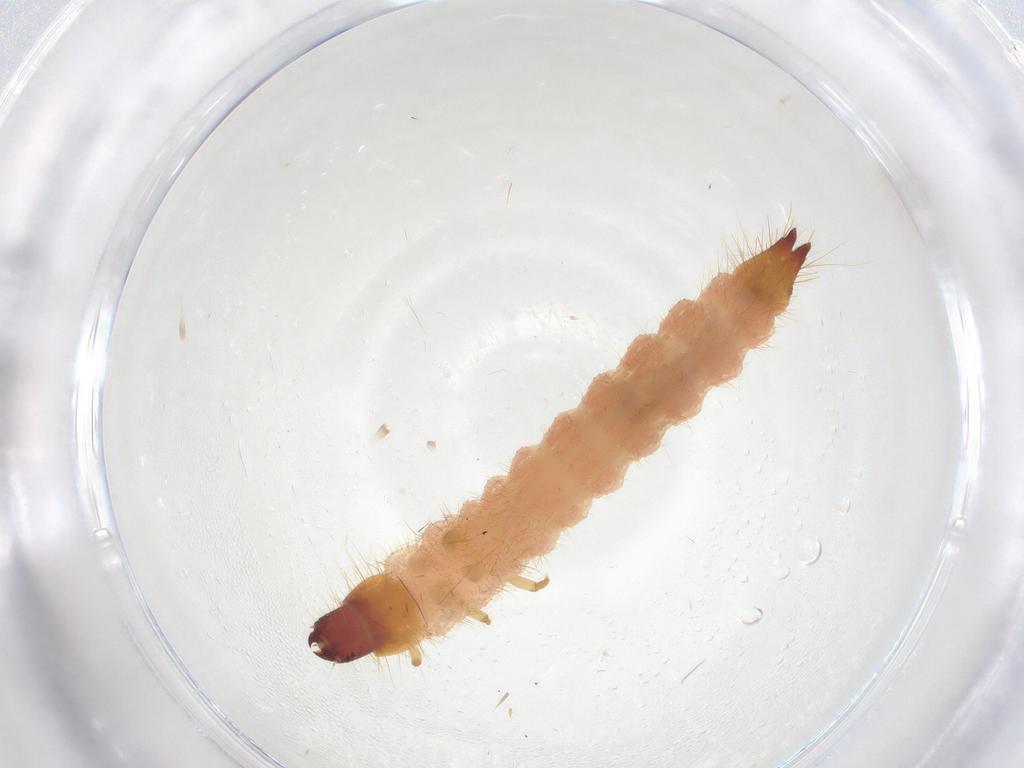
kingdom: Animalia
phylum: Arthropoda
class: Insecta
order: Coleoptera
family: Phalacridae
